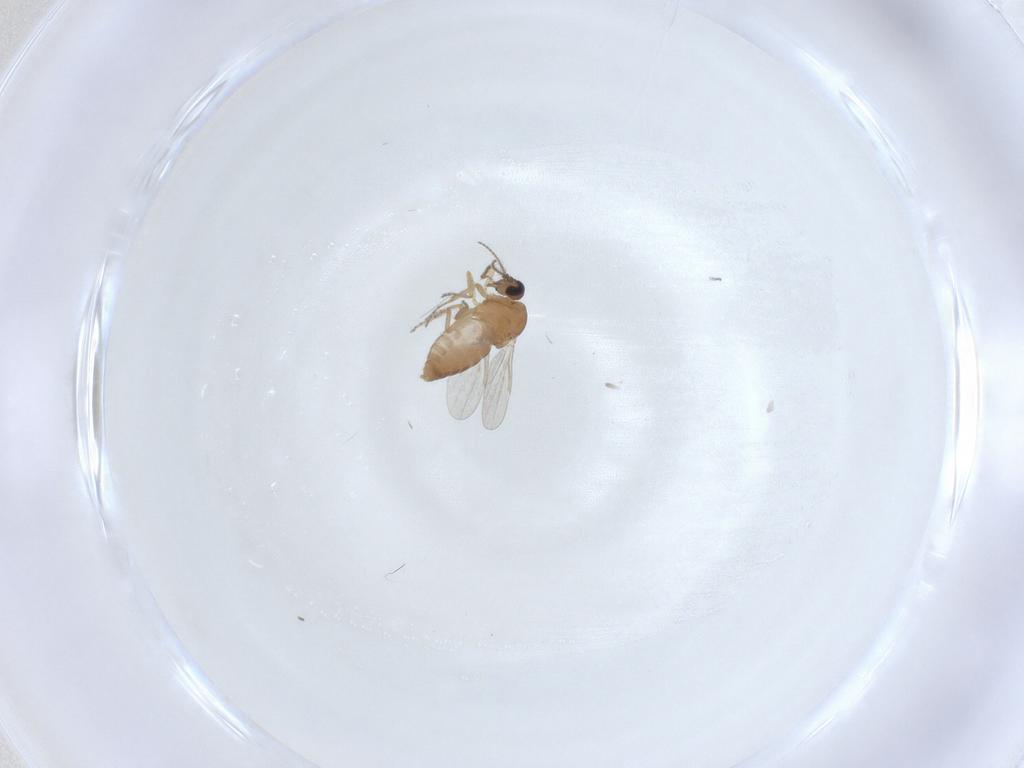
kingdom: Animalia
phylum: Arthropoda
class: Insecta
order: Diptera
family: Ceratopogonidae
